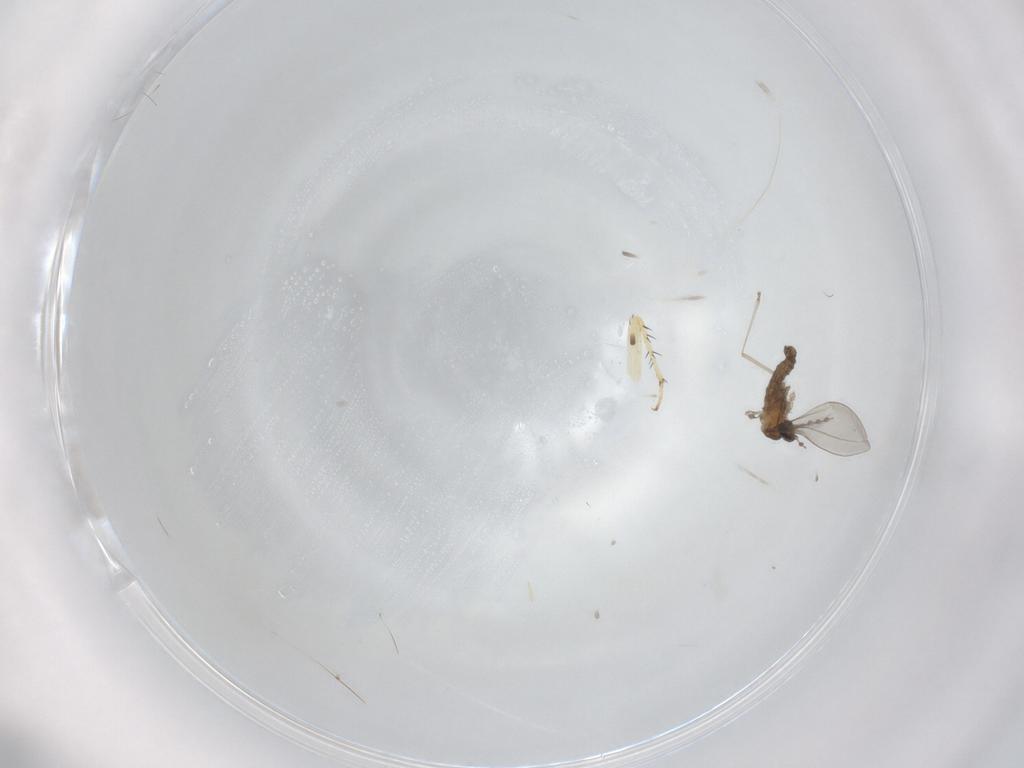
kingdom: Animalia
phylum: Arthropoda
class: Insecta
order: Diptera
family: Cecidomyiidae
